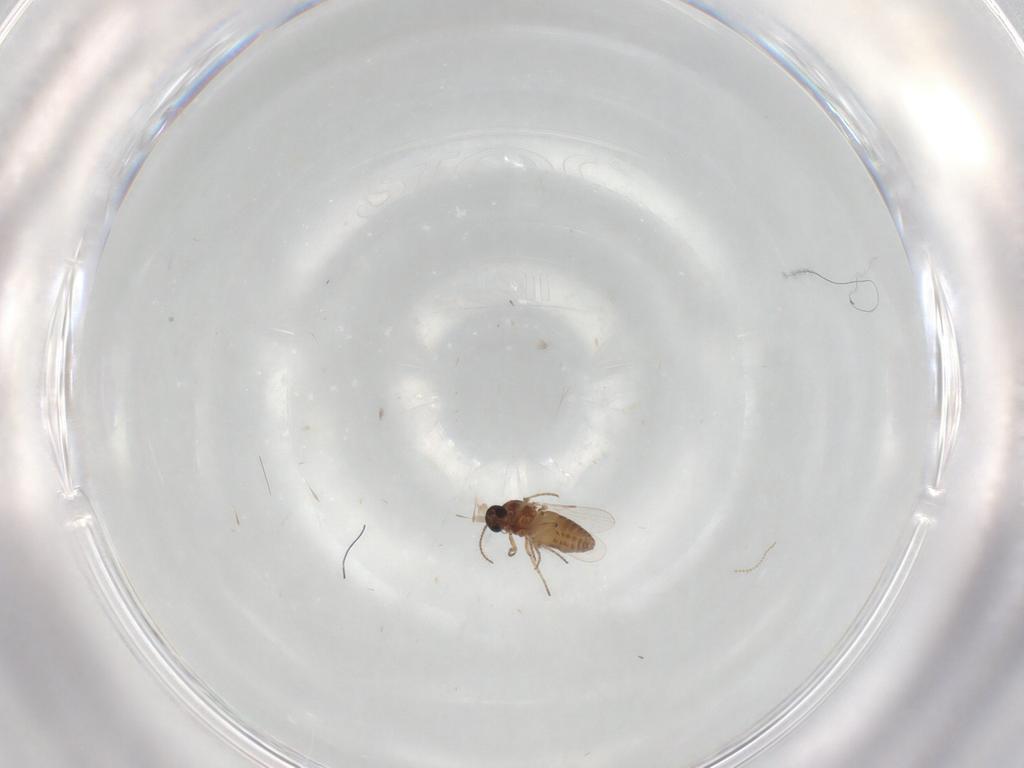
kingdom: Animalia
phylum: Arthropoda
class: Insecta
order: Diptera
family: Ceratopogonidae
